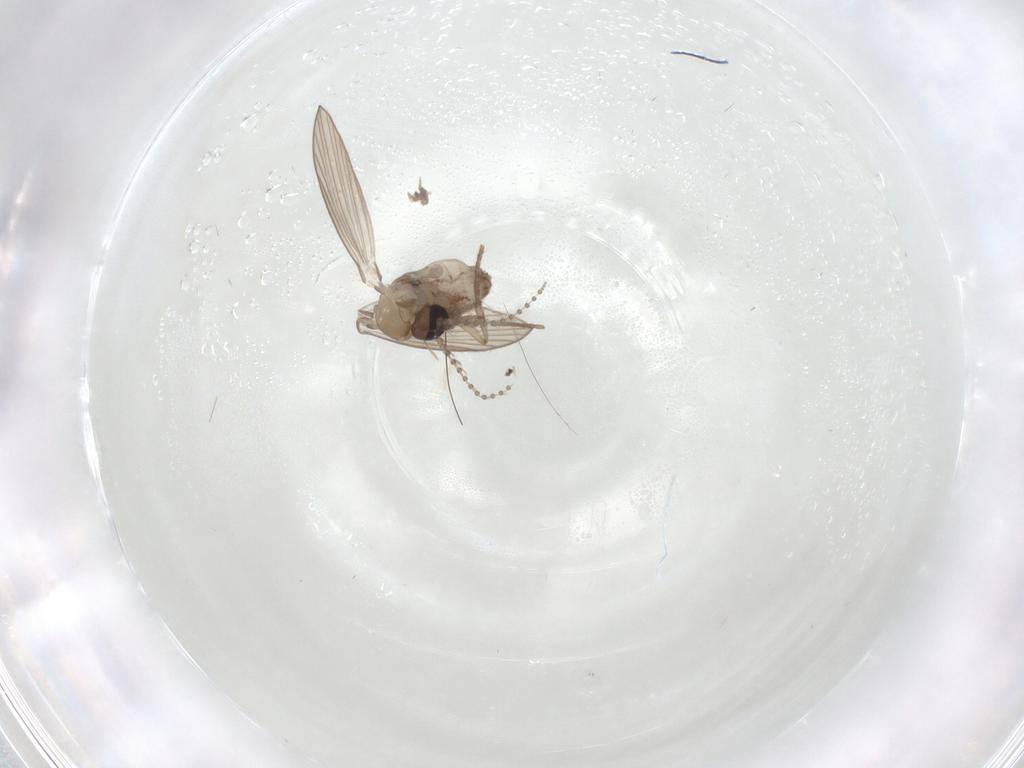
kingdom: Animalia
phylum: Arthropoda
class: Insecta
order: Diptera
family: Psychodidae
